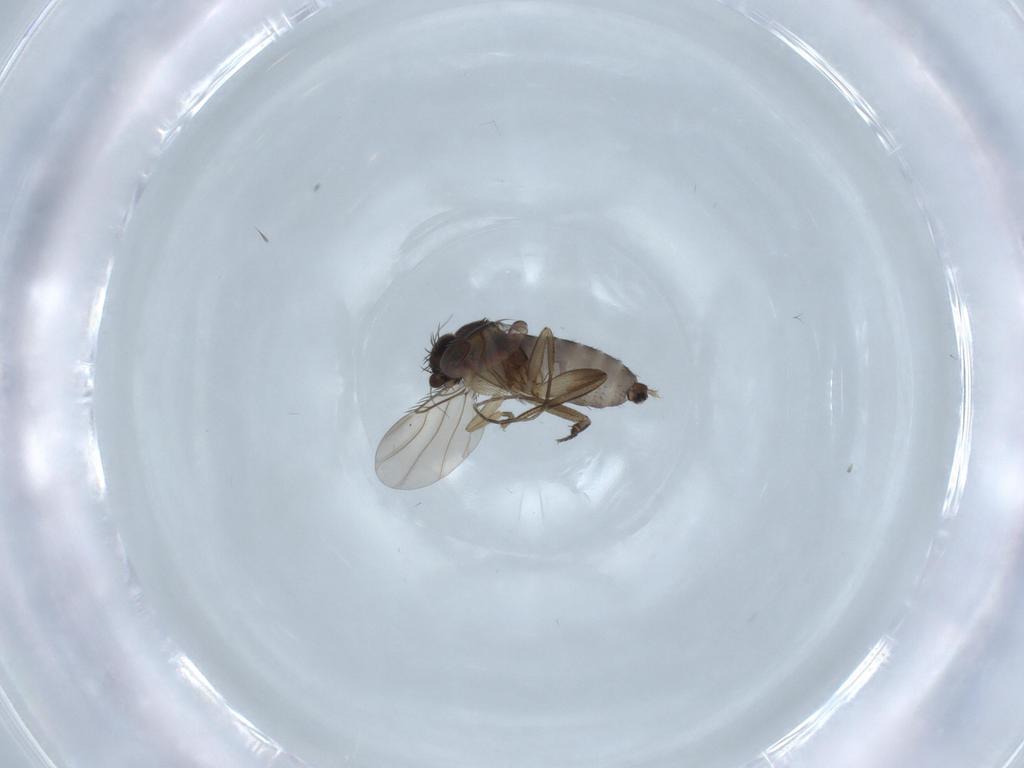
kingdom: Animalia
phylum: Arthropoda
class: Insecta
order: Diptera
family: Phoridae
